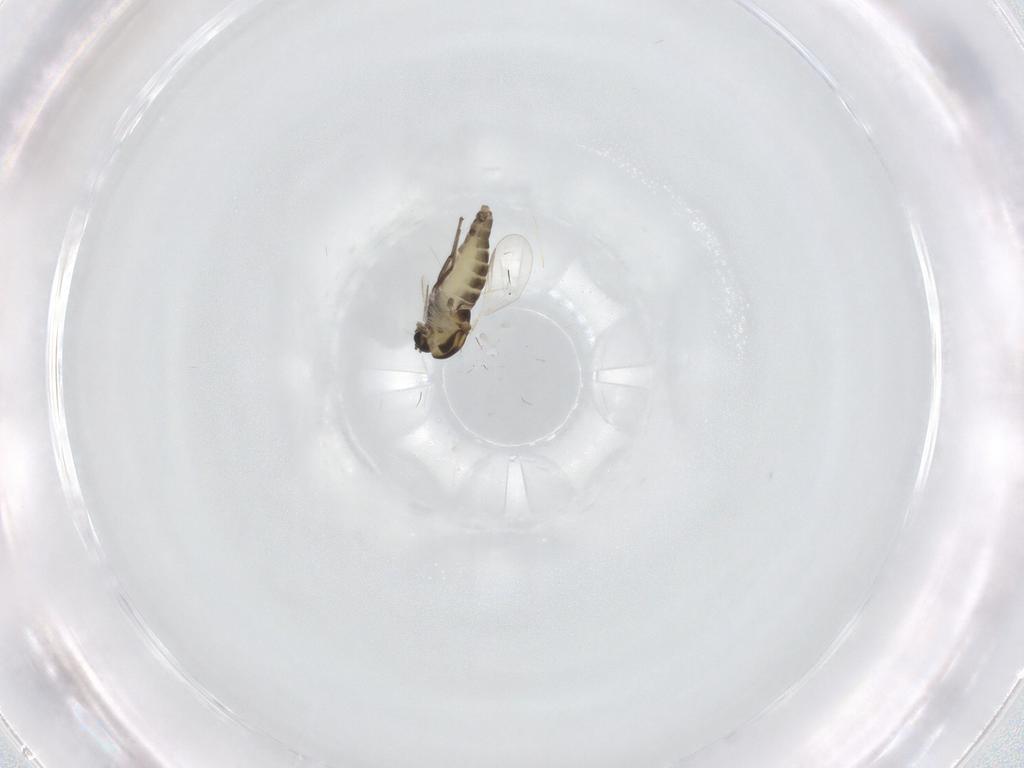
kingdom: Animalia
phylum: Arthropoda
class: Insecta
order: Diptera
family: Chironomidae
